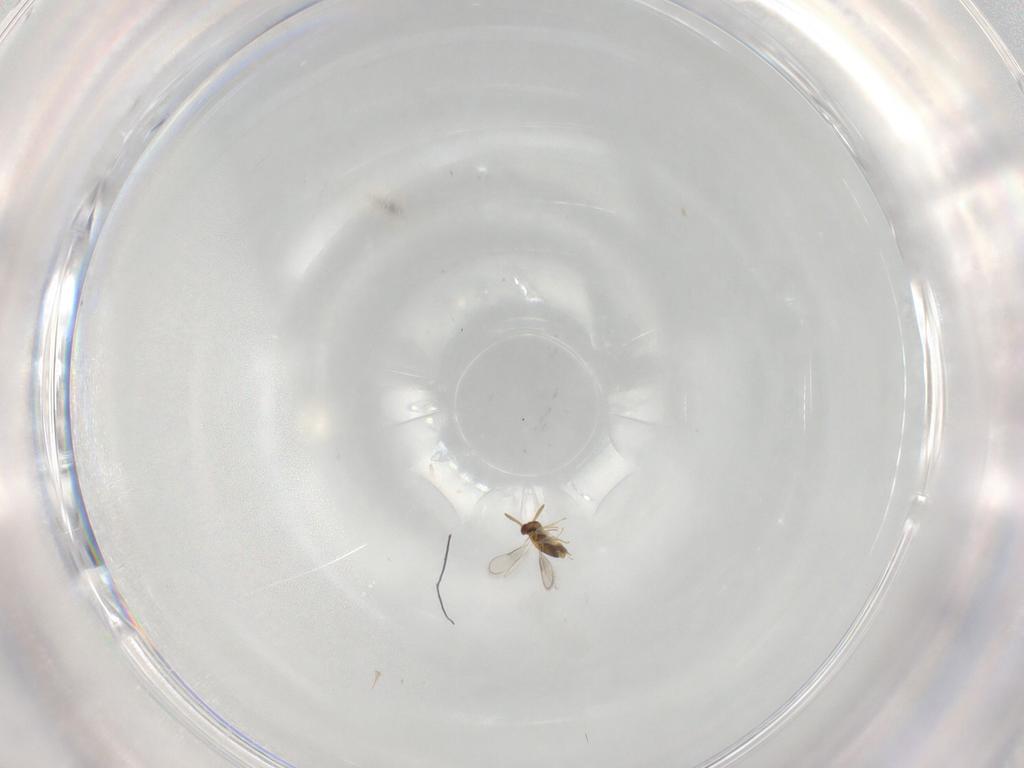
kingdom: Animalia
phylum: Arthropoda
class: Insecta
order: Hymenoptera
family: Aphelinidae
